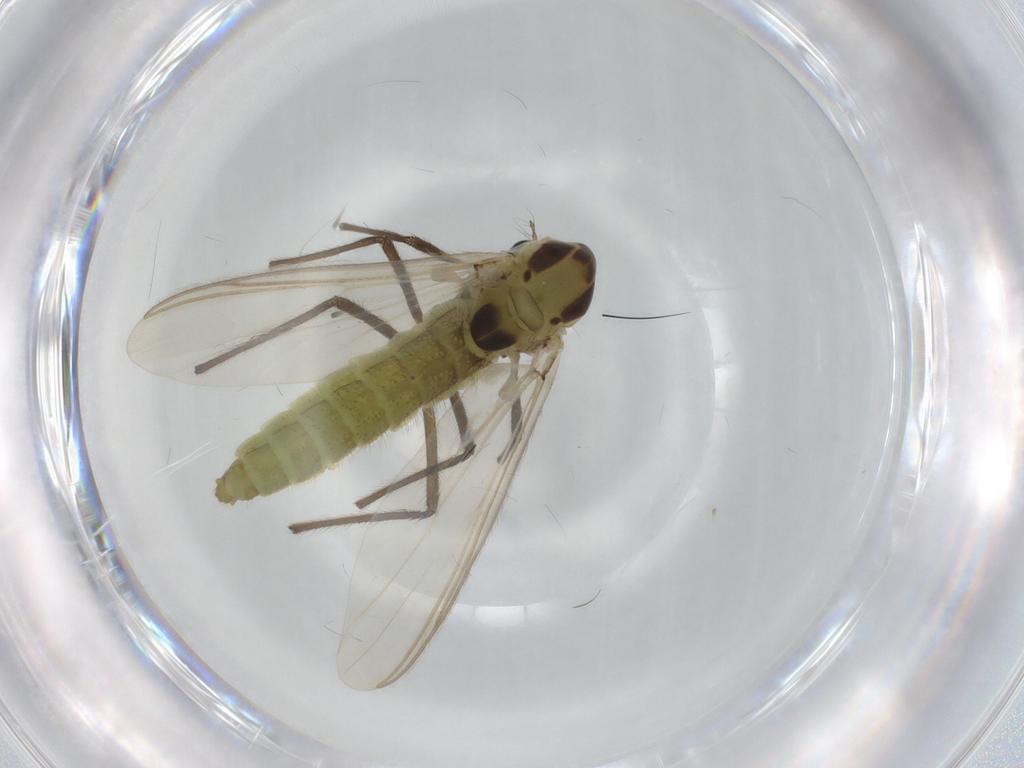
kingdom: Animalia
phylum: Arthropoda
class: Insecta
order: Diptera
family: Chironomidae
